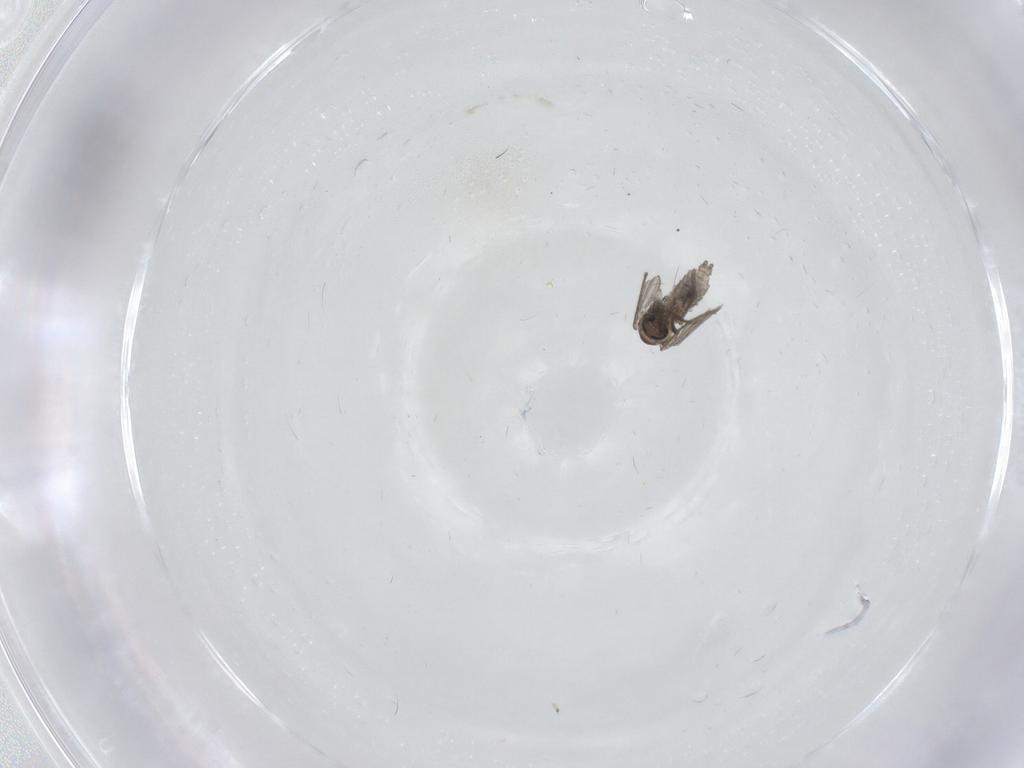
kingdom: Animalia
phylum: Arthropoda
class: Insecta
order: Diptera
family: Psychodidae
